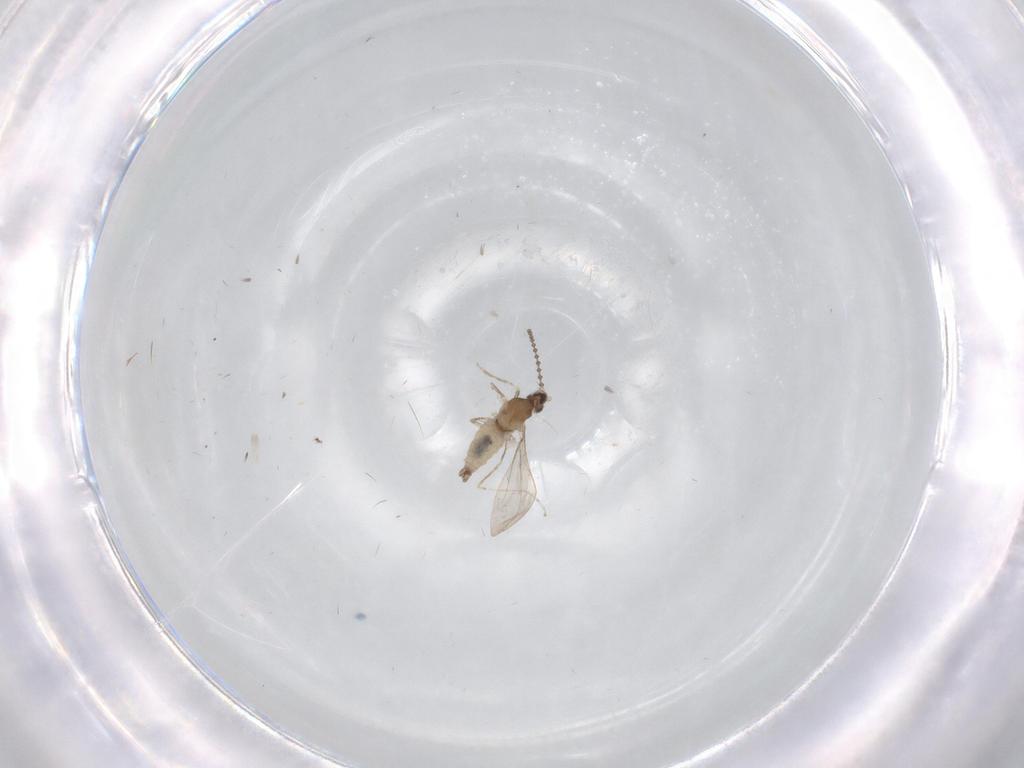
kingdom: Animalia
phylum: Arthropoda
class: Insecta
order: Diptera
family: Cecidomyiidae
